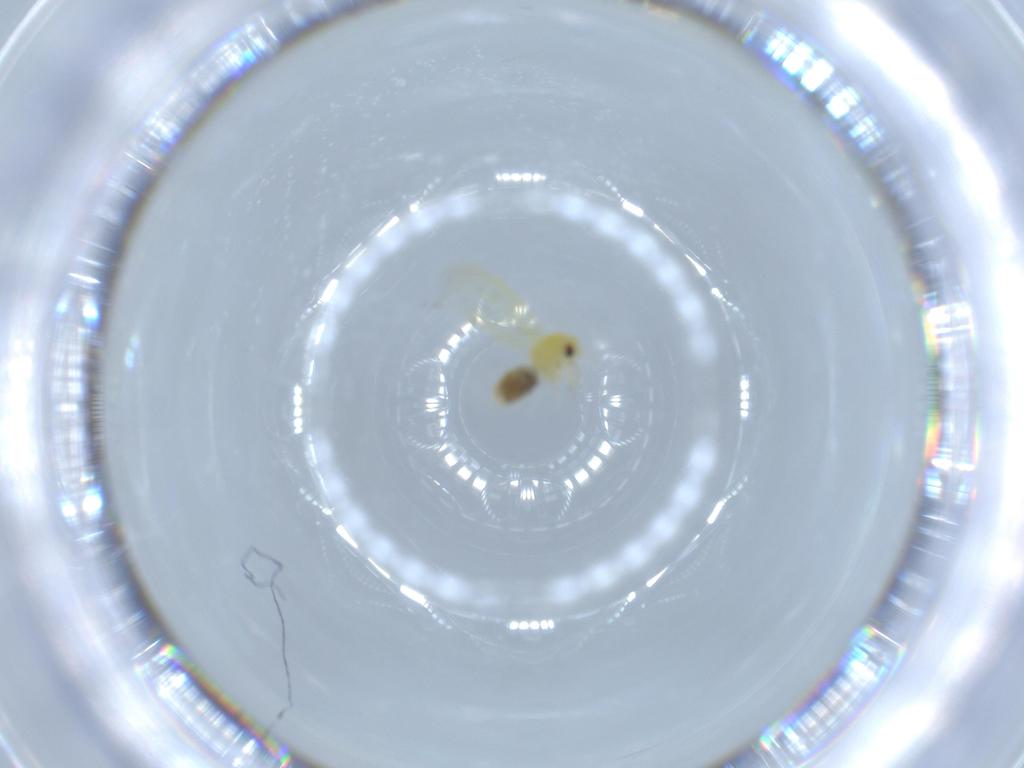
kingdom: Animalia
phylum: Arthropoda
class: Insecta
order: Hemiptera
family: Aleyrodidae
